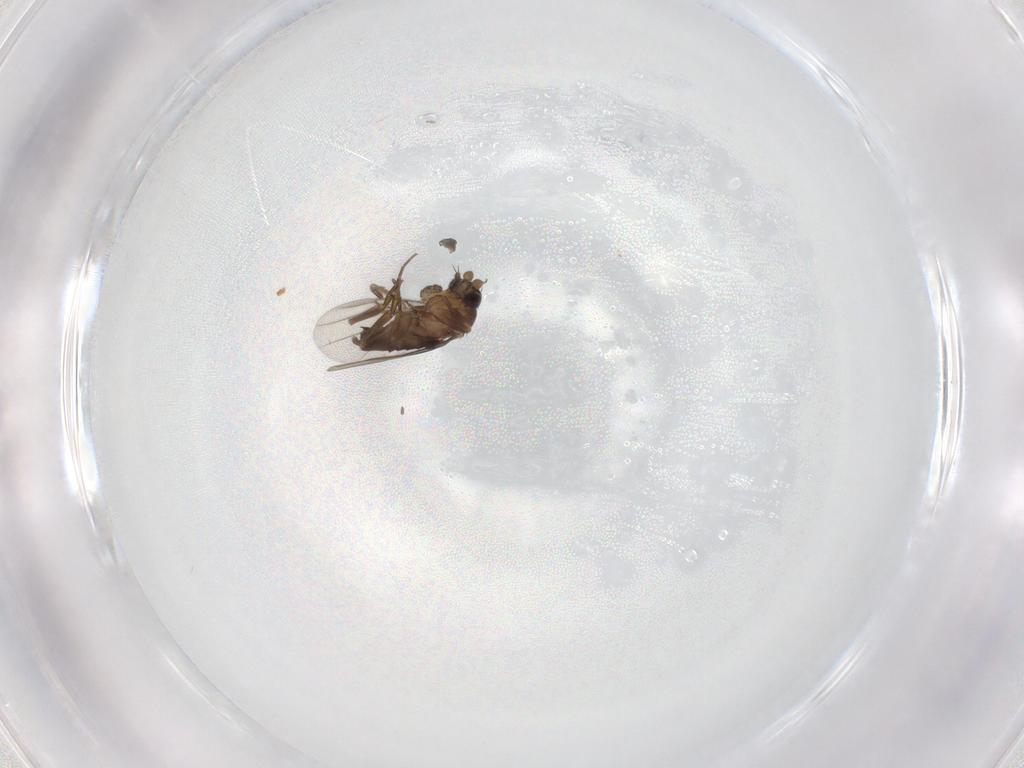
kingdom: Animalia
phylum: Arthropoda
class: Insecta
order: Diptera
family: Phoridae
